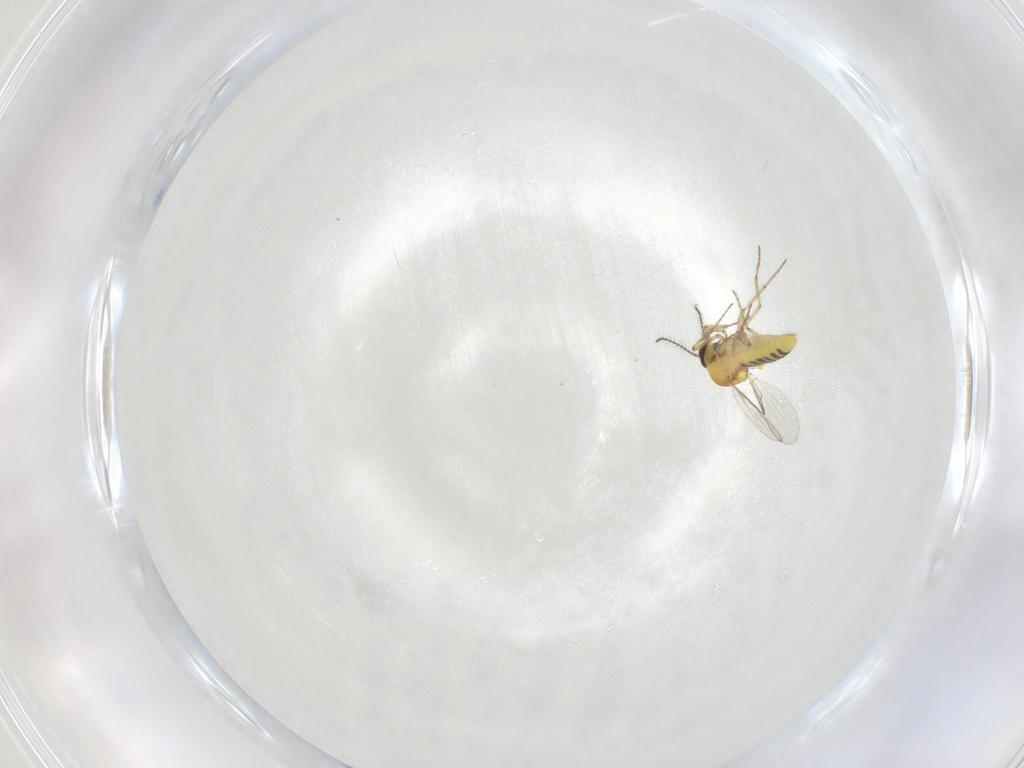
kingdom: Animalia
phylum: Arthropoda
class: Insecta
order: Diptera
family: Ceratopogonidae
